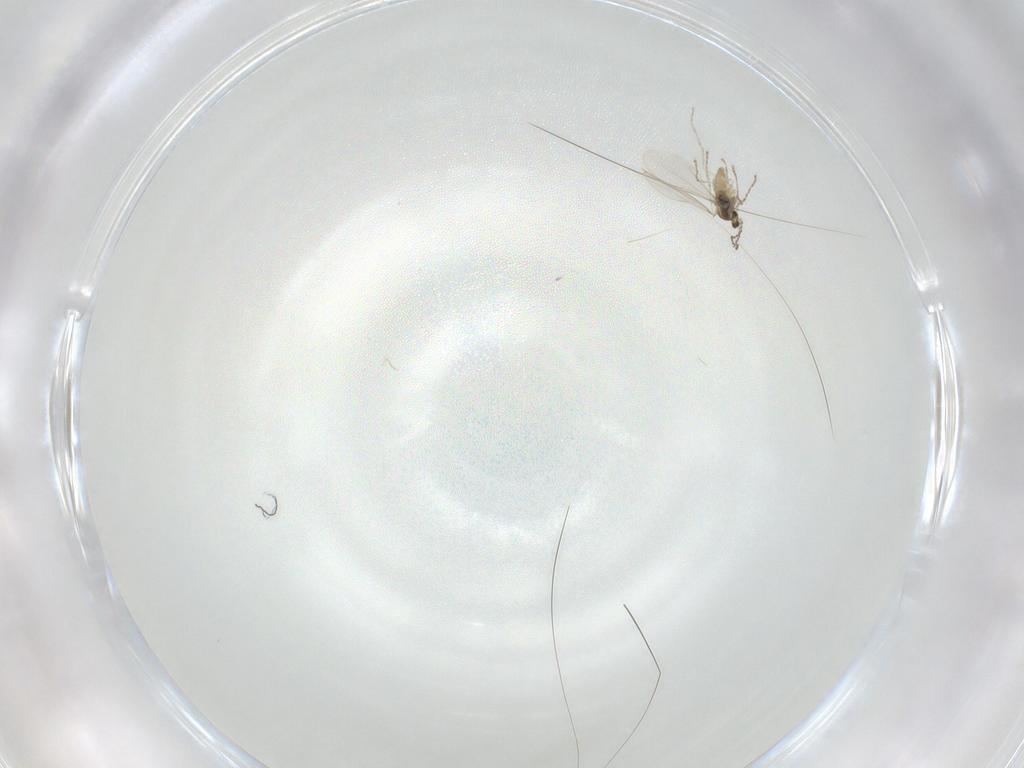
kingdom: Animalia
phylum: Arthropoda
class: Insecta
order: Diptera
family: Cecidomyiidae
